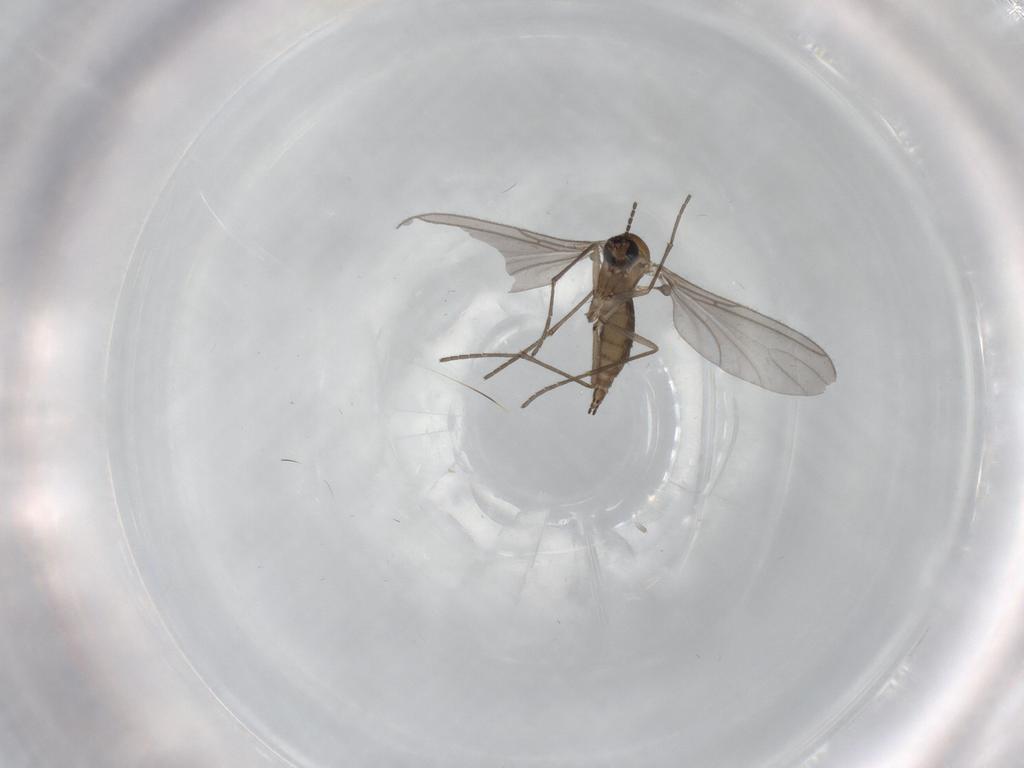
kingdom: Animalia
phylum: Arthropoda
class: Insecta
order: Diptera
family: Sciaridae
